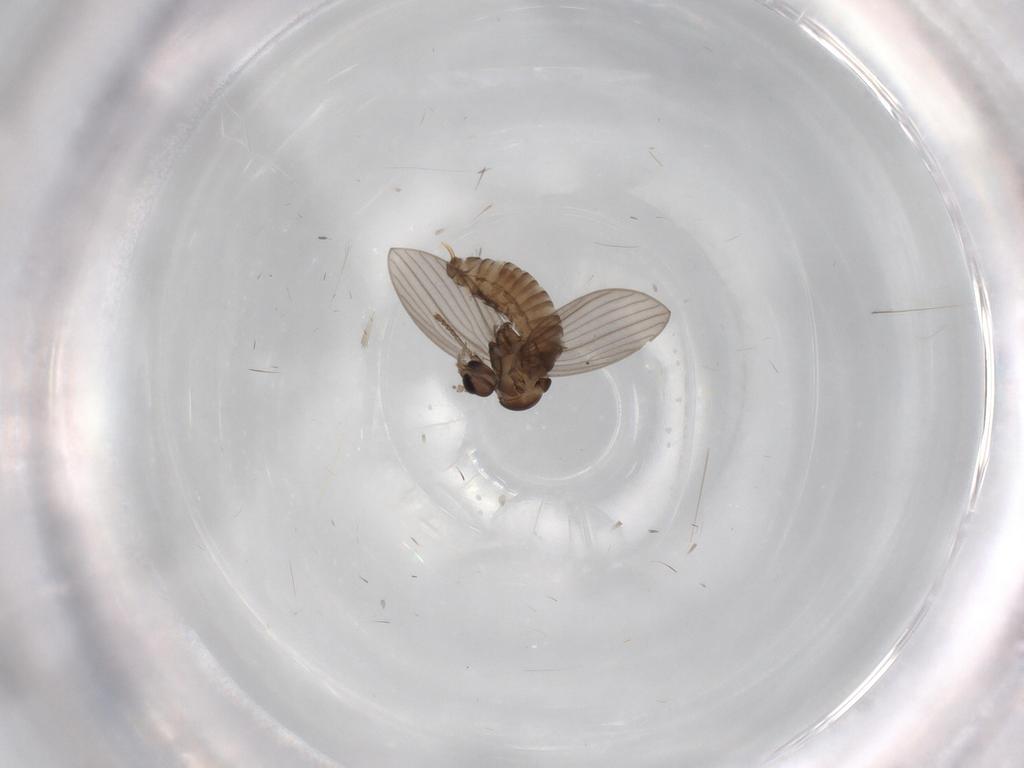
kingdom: Animalia
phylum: Arthropoda
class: Insecta
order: Diptera
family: Psychodidae
